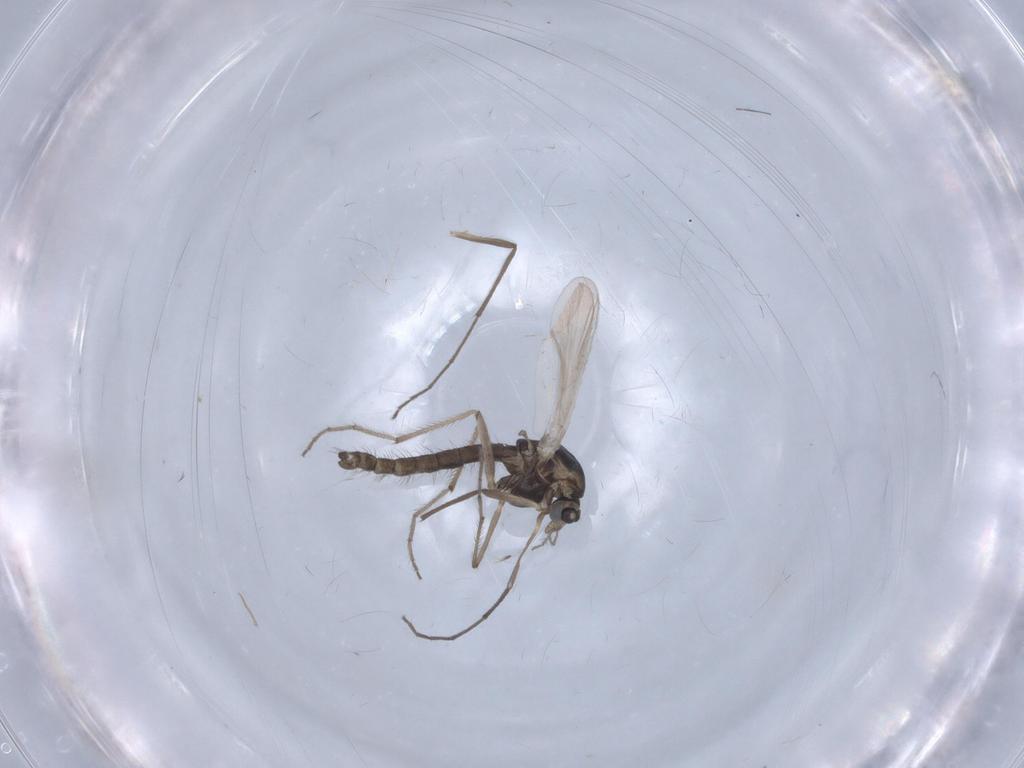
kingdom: Animalia
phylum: Arthropoda
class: Insecta
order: Diptera
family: Chironomidae
